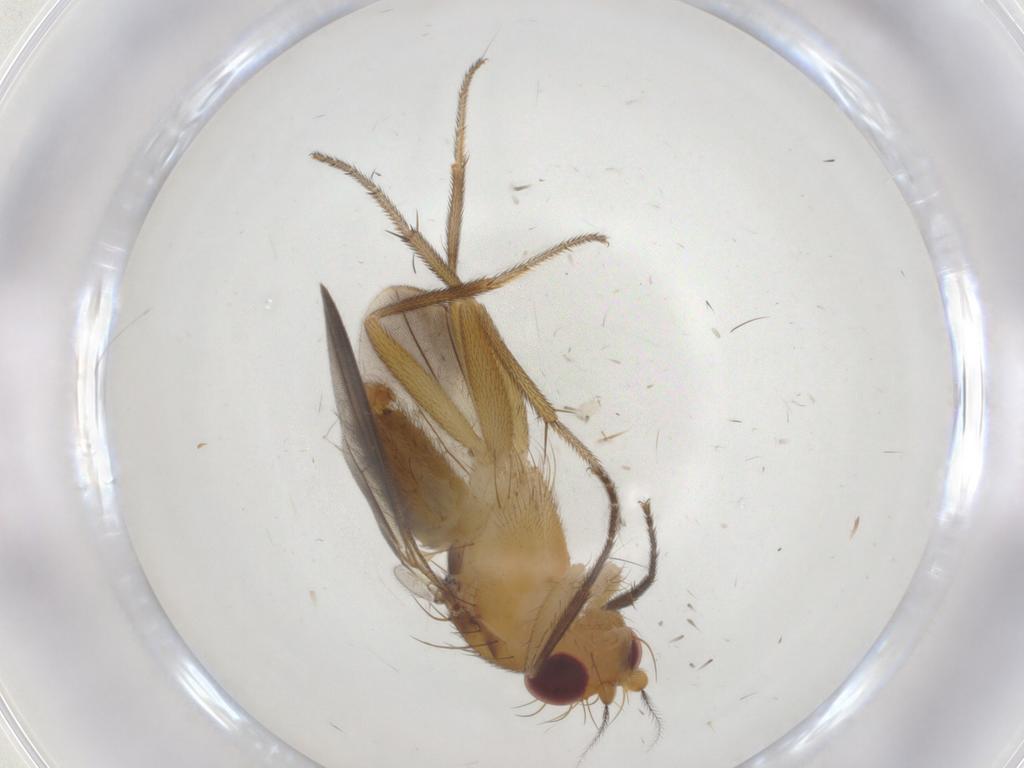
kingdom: Animalia
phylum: Arthropoda
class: Insecta
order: Diptera
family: Clusiidae
